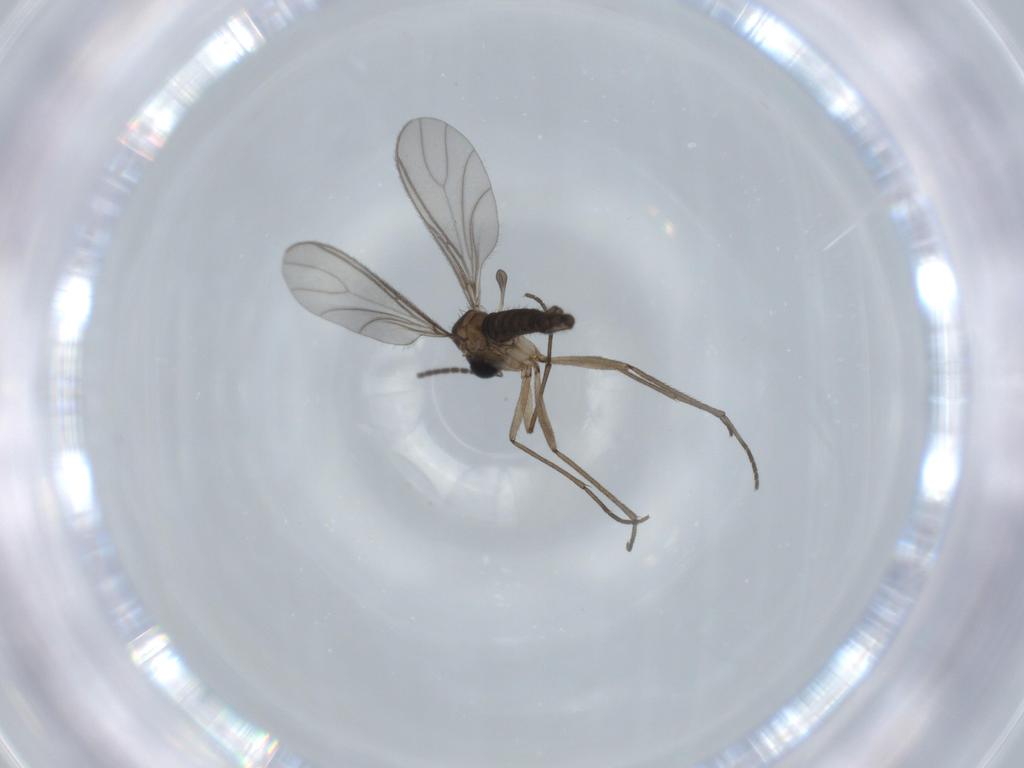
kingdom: Animalia
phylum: Arthropoda
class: Insecta
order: Diptera
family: Sciaridae
